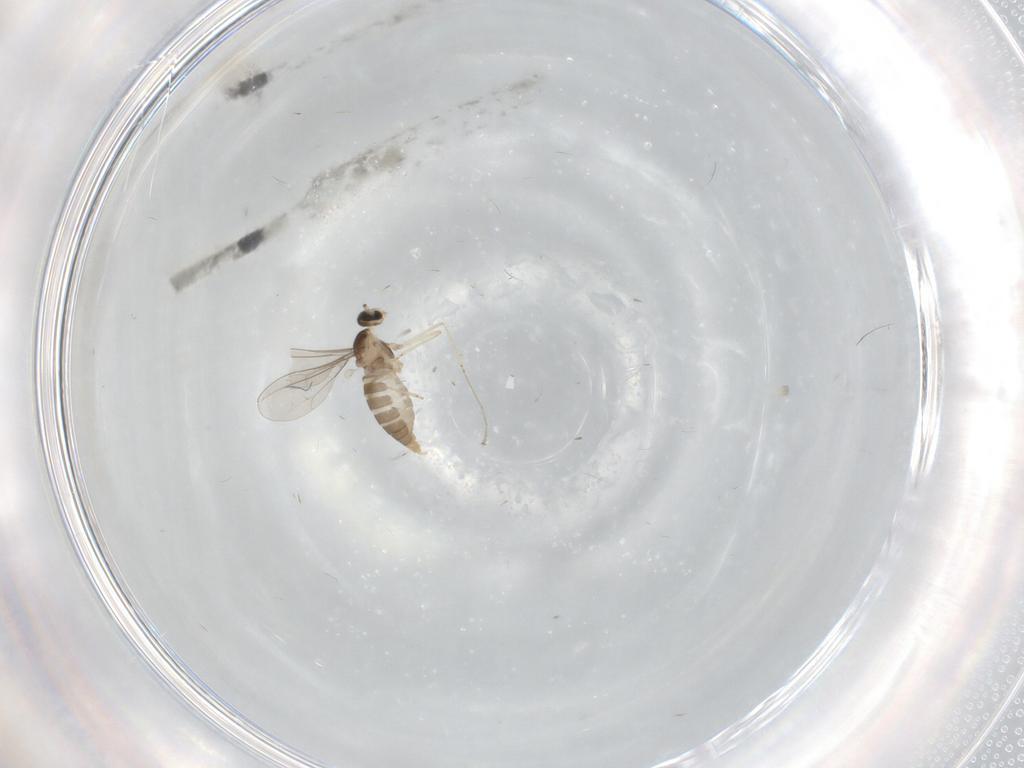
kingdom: Animalia
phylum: Arthropoda
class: Insecta
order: Diptera
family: Cecidomyiidae
